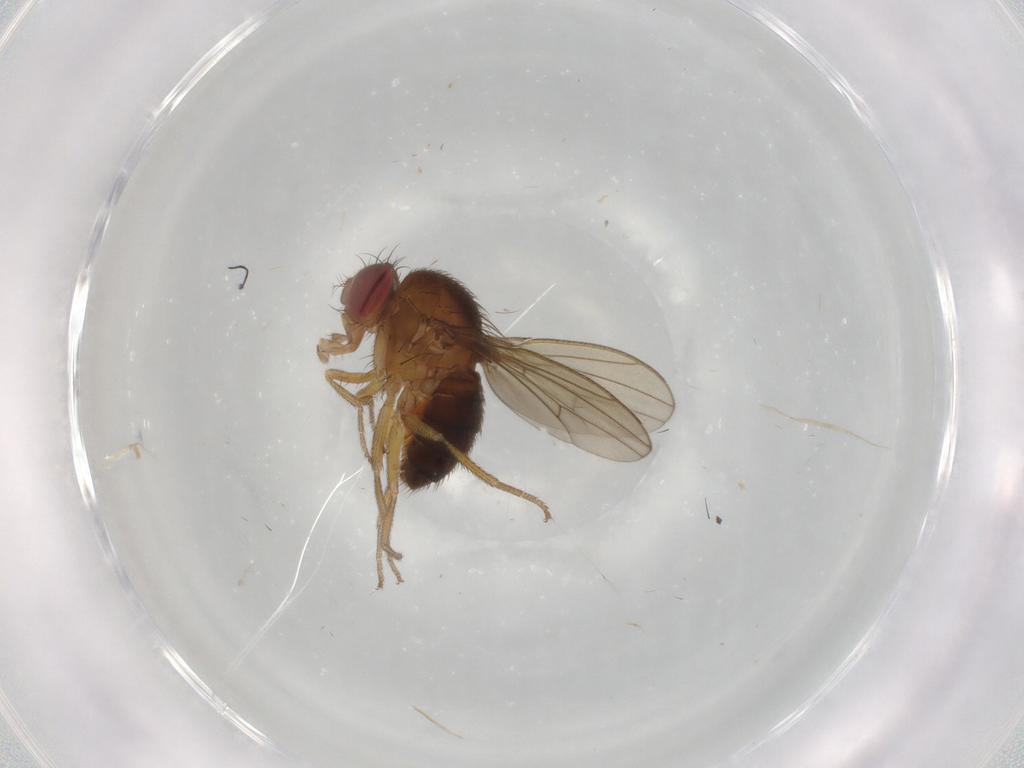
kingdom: Animalia
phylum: Arthropoda
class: Insecta
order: Diptera
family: Drosophilidae
